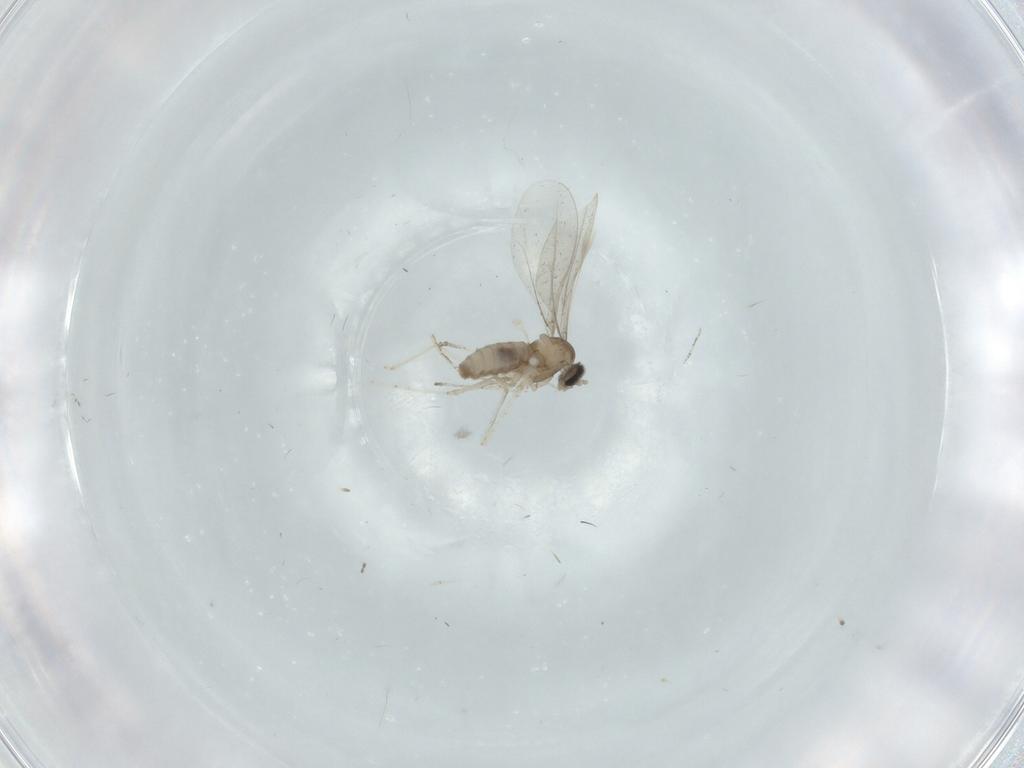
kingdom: Animalia
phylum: Arthropoda
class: Insecta
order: Diptera
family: Cecidomyiidae
